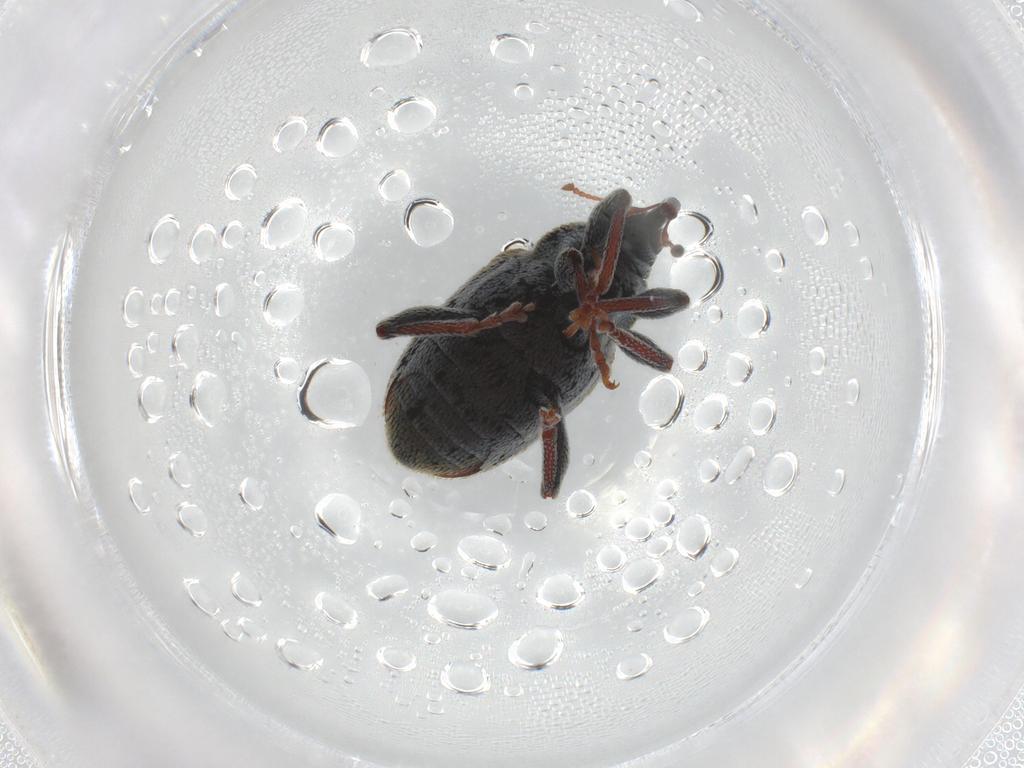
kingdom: Animalia
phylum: Arthropoda
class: Insecta
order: Coleoptera
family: Curculionidae
